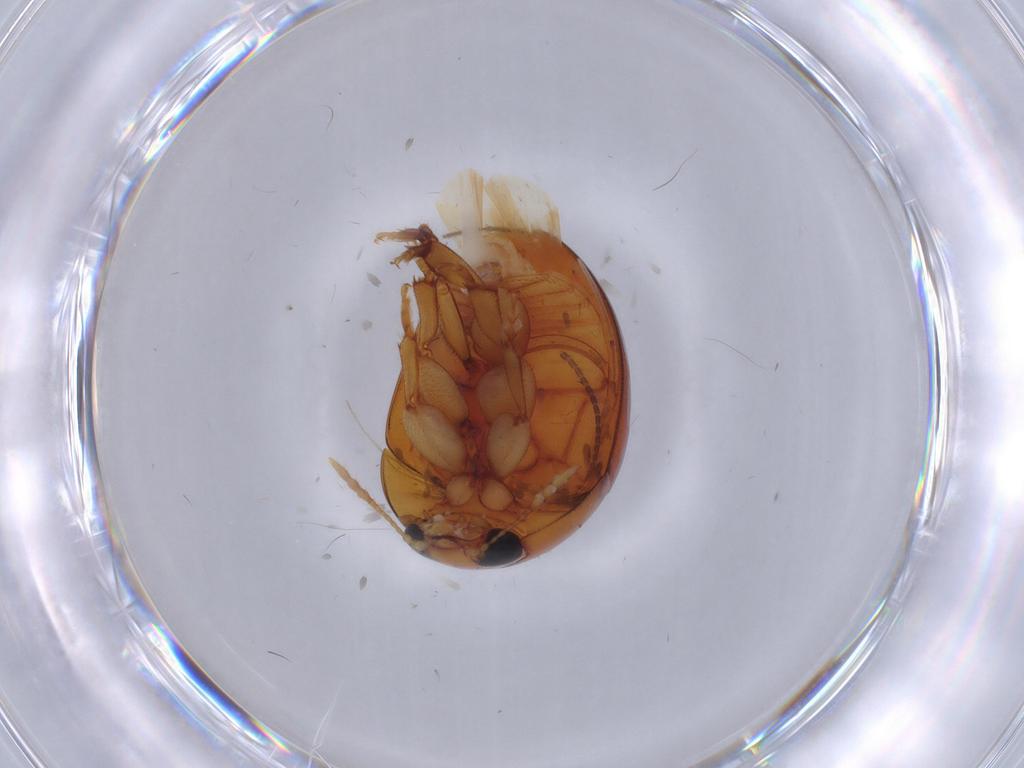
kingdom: Animalia
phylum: Arthropoda
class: Insecta
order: Coleoptera
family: Phalacridae
